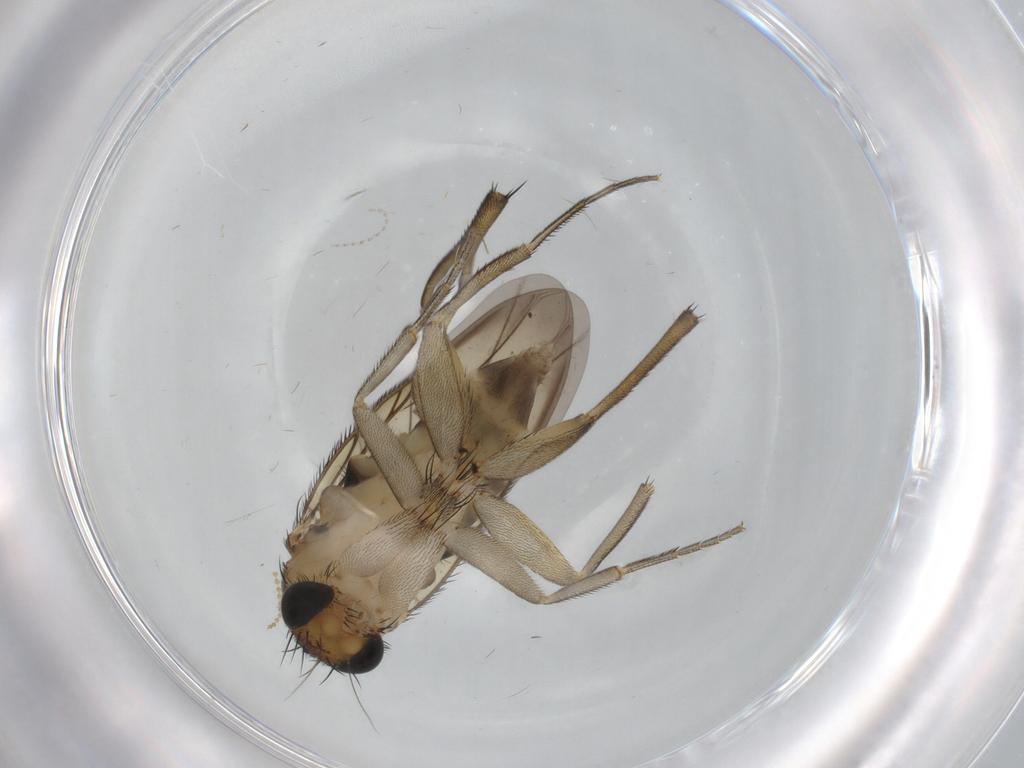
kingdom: Animalia
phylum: Arthropoda
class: Insecta
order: Diptera
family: Phoridae
